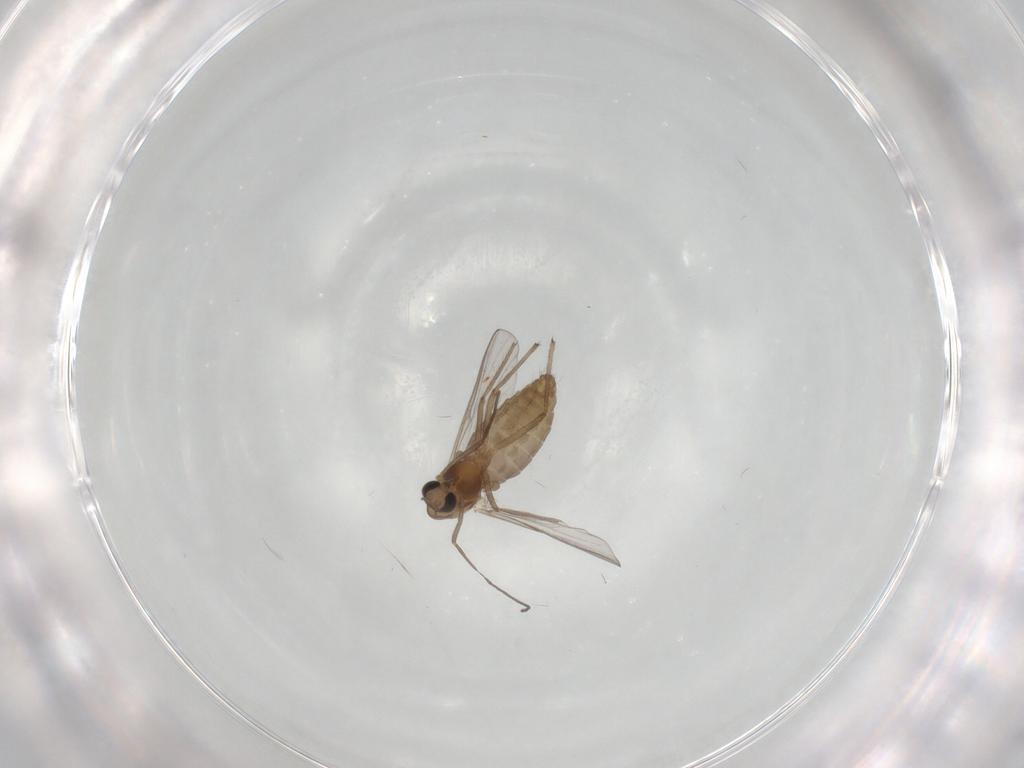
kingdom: Animalia
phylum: Arthropoda
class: Insecta
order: Diptera
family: Chironomidae
